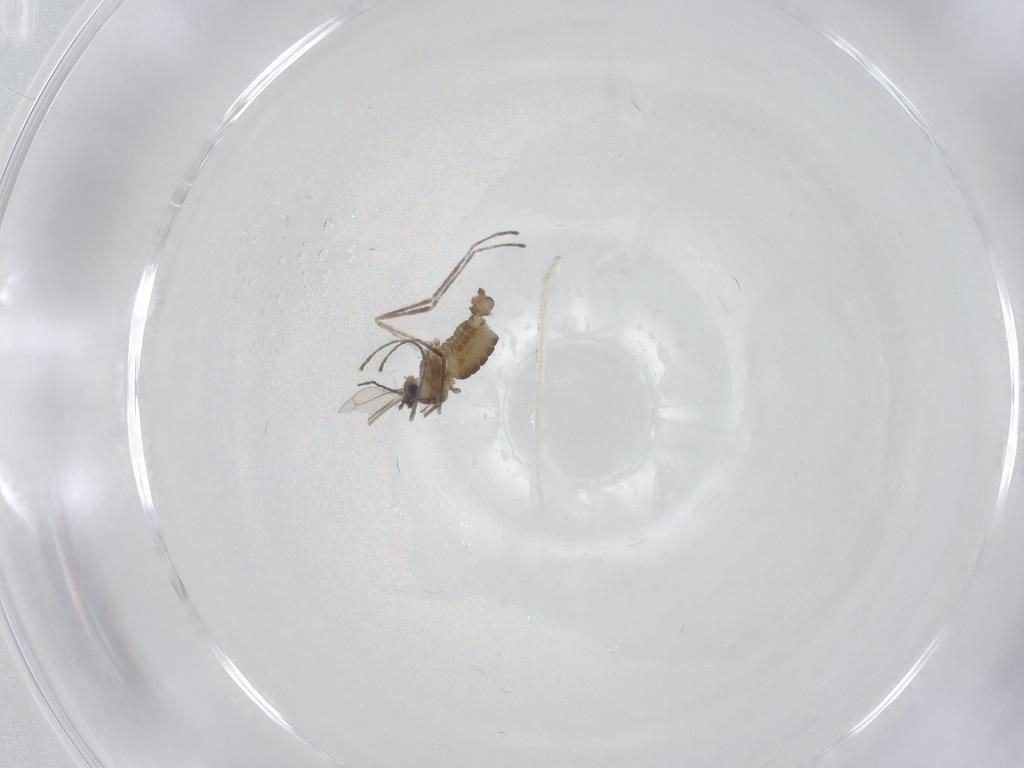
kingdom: Animalia
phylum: Arthropoda
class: Insecta
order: Diptera
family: Cecidomyiidae
